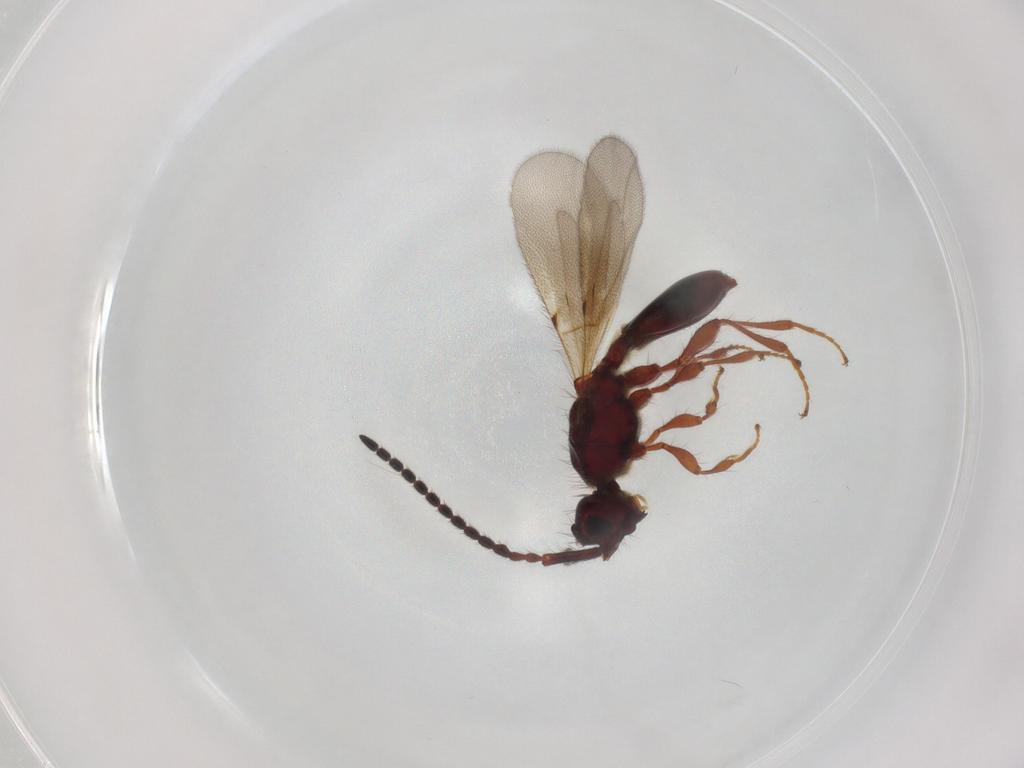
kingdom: Animalia
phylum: Arthropoda
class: Insecta
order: Hymenoptera
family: Diapriidae
